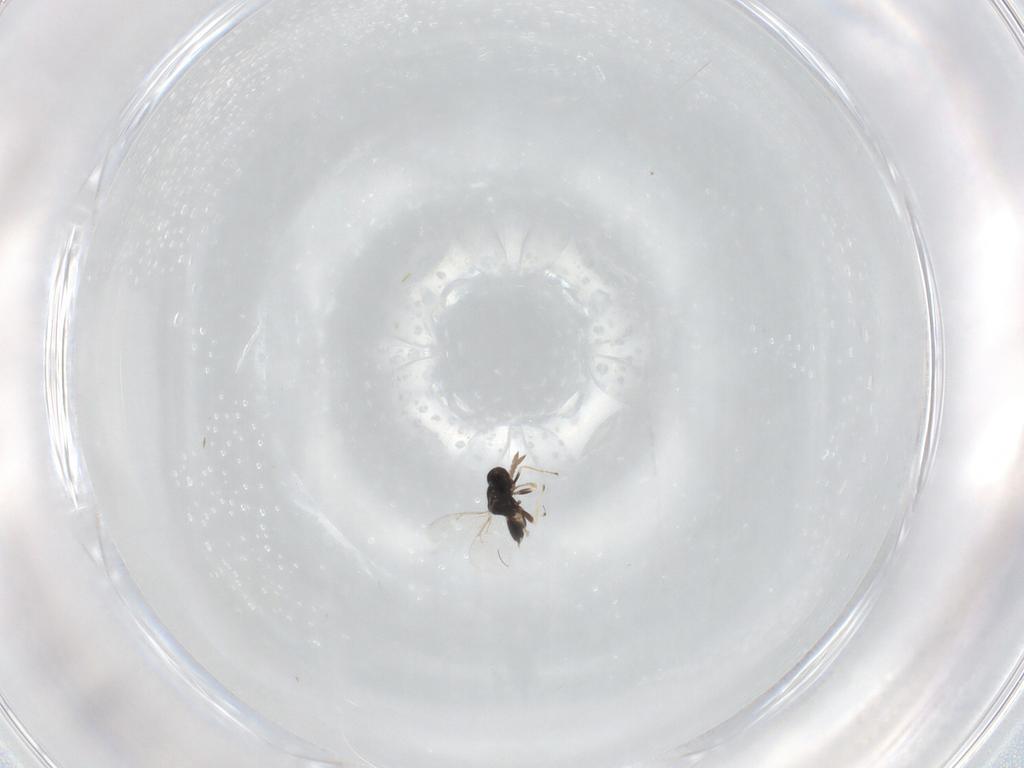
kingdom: Animalia
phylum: Arthropoda
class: Insecta
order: Hymenoptera
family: Eulophidae
